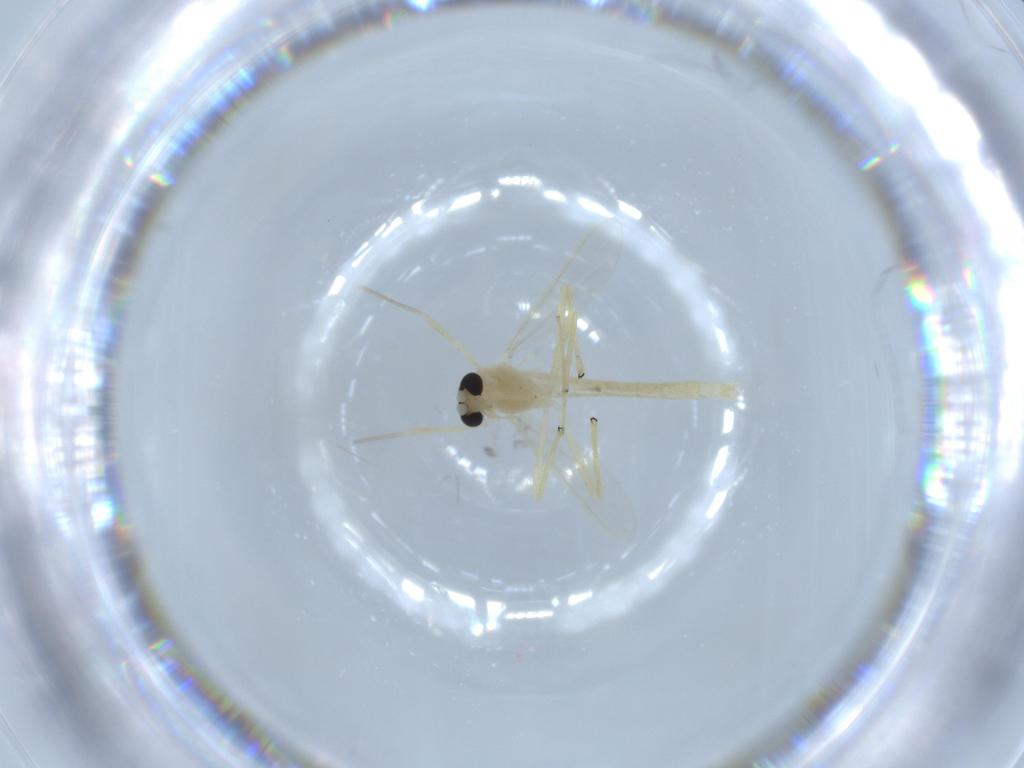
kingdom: Animalia
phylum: Arthropoda
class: Insecta
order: Diptera
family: Chironomidae
